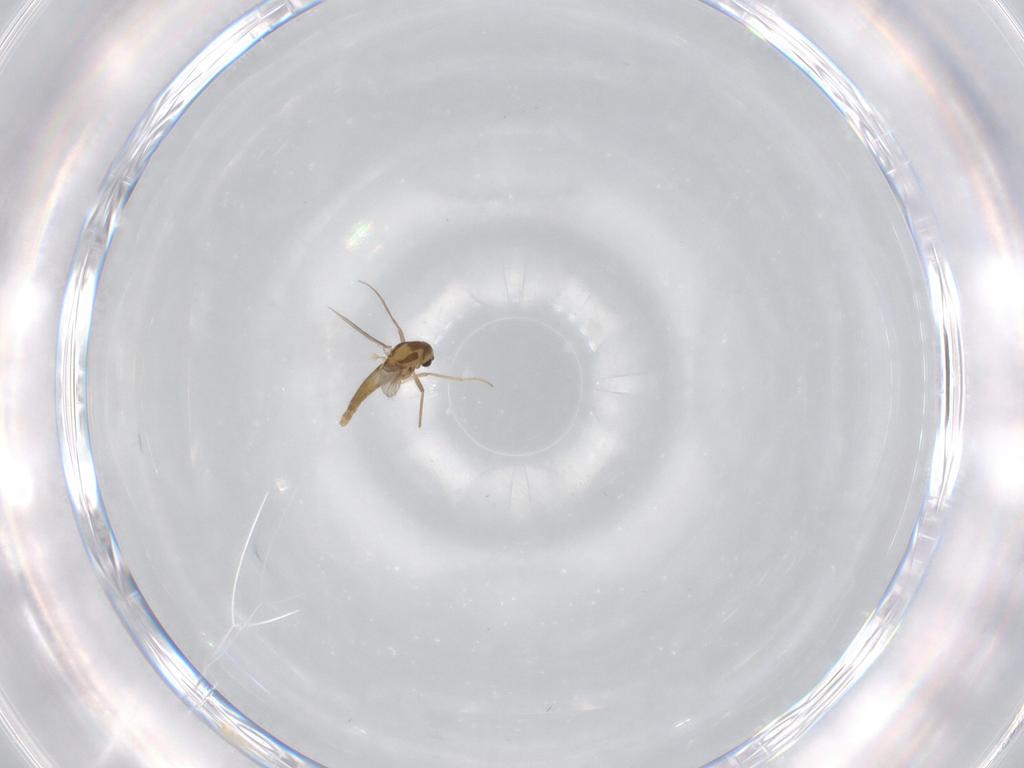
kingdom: Animalia
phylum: Arthropoda
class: Insecta
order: Diptera
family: Chironomidae
